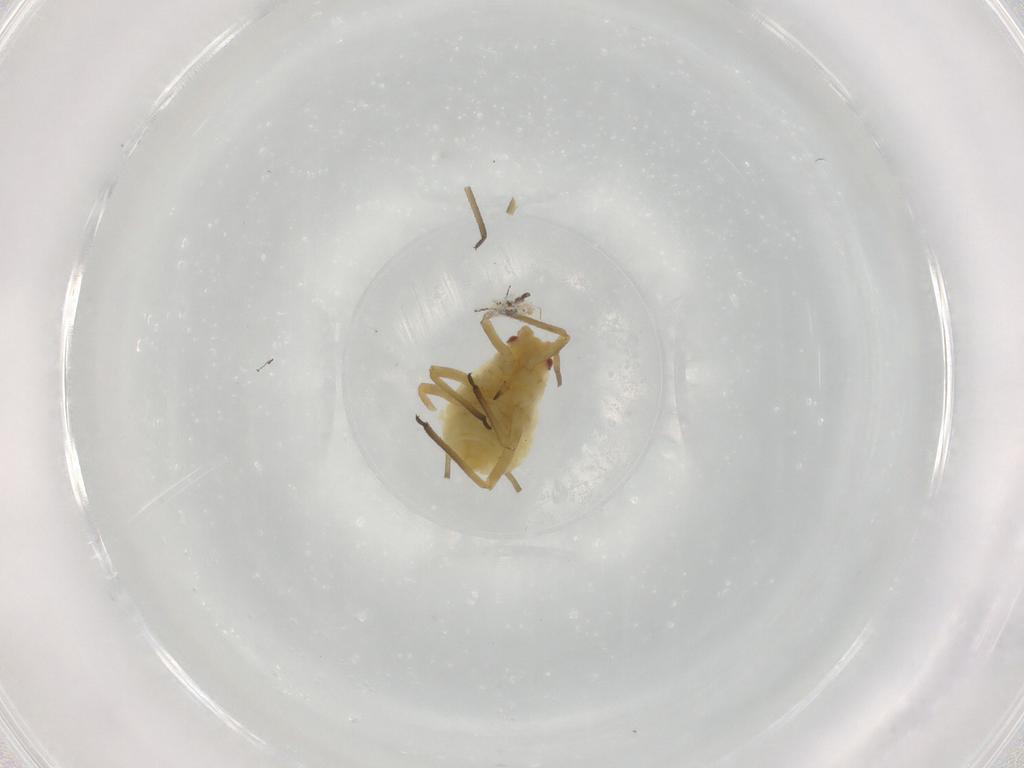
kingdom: Animalia
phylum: Arthropoda
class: Insecta
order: Hemiptera
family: Aphididae
